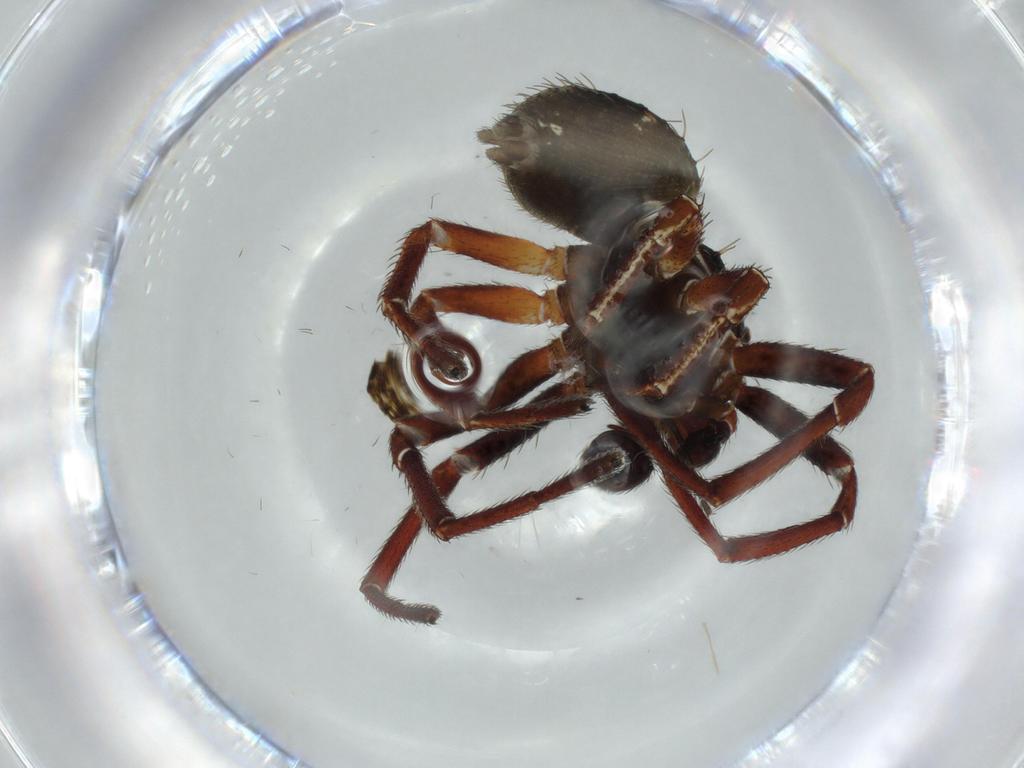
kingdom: Animalia
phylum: Arthropoda
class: Arachnida
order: Araneae
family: Thomisidae
